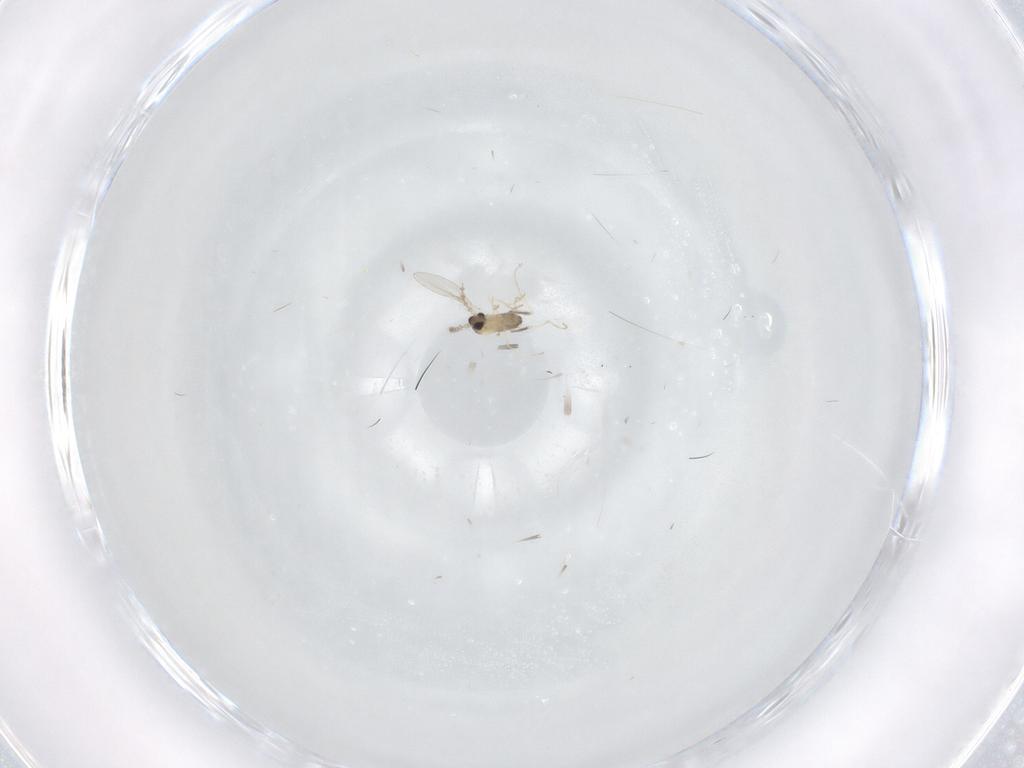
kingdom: Animalia
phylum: Arthropoda
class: Insecta
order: Diptera
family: Cecidomyiidae
